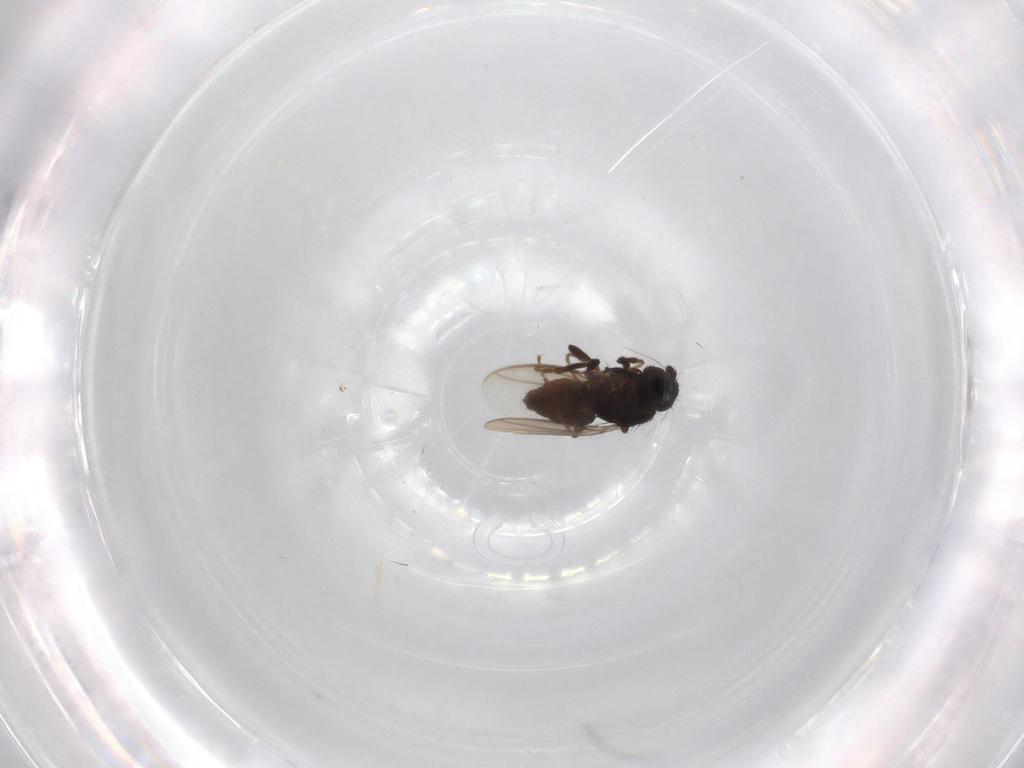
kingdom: Animalia
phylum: Arthropoda
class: Insecta
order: Diptera
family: Sphaeroceridae
